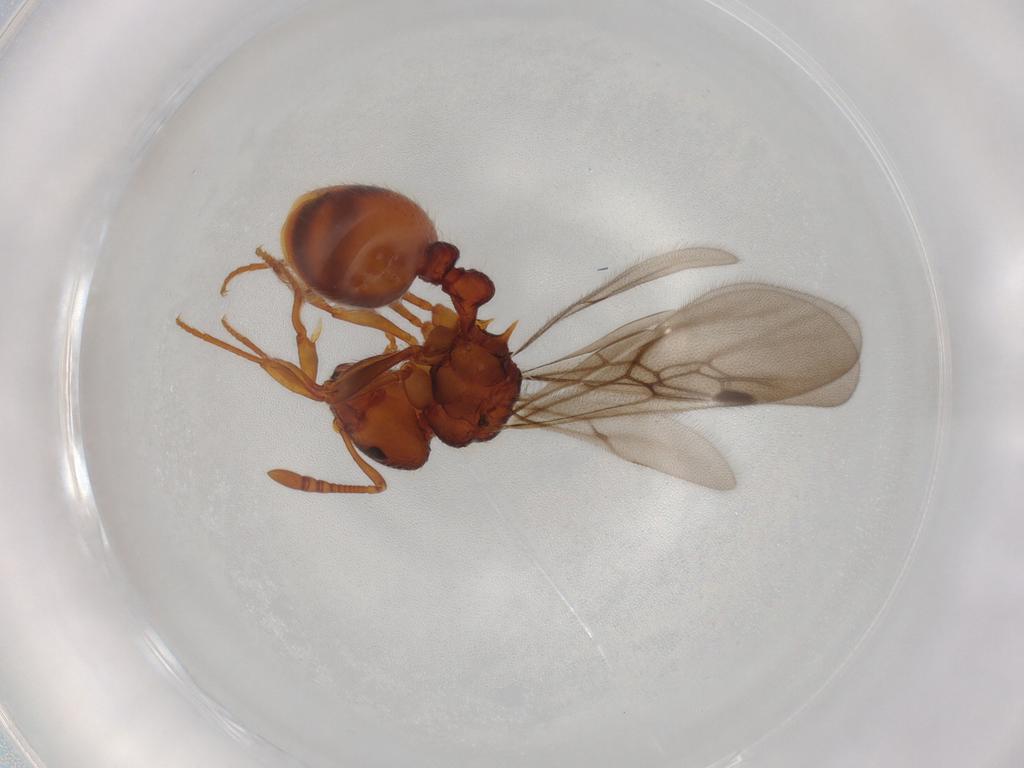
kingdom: Animalia
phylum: Arthropoda
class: Insecta
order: Hymenoptera
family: Formicidae
